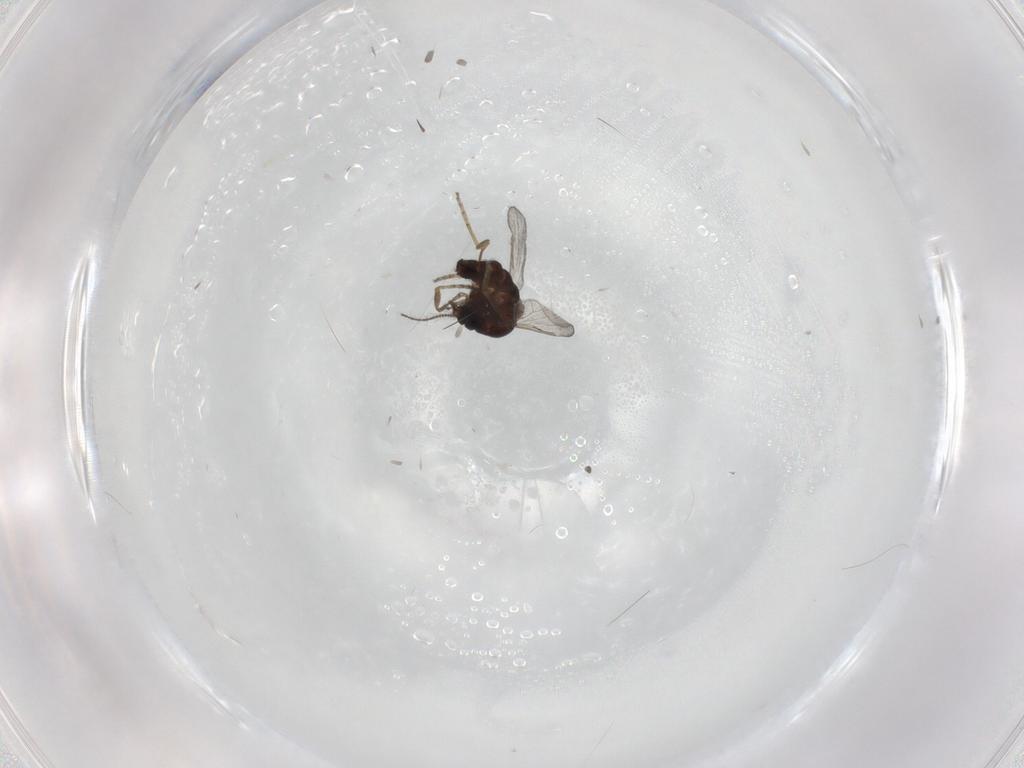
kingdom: Animalia
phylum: Arthropoda
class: Insecta
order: Diptera
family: Ceratopogonidae
